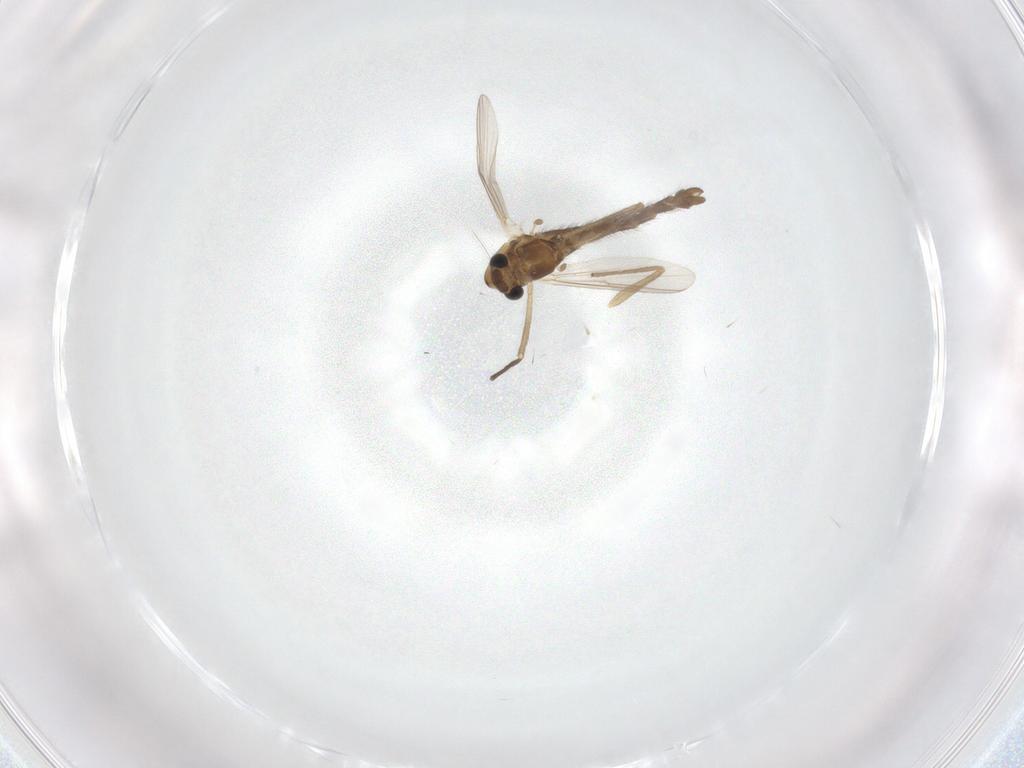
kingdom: Animalia
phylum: Arthropoda
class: Insecta
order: Diptera
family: Chironomidae
